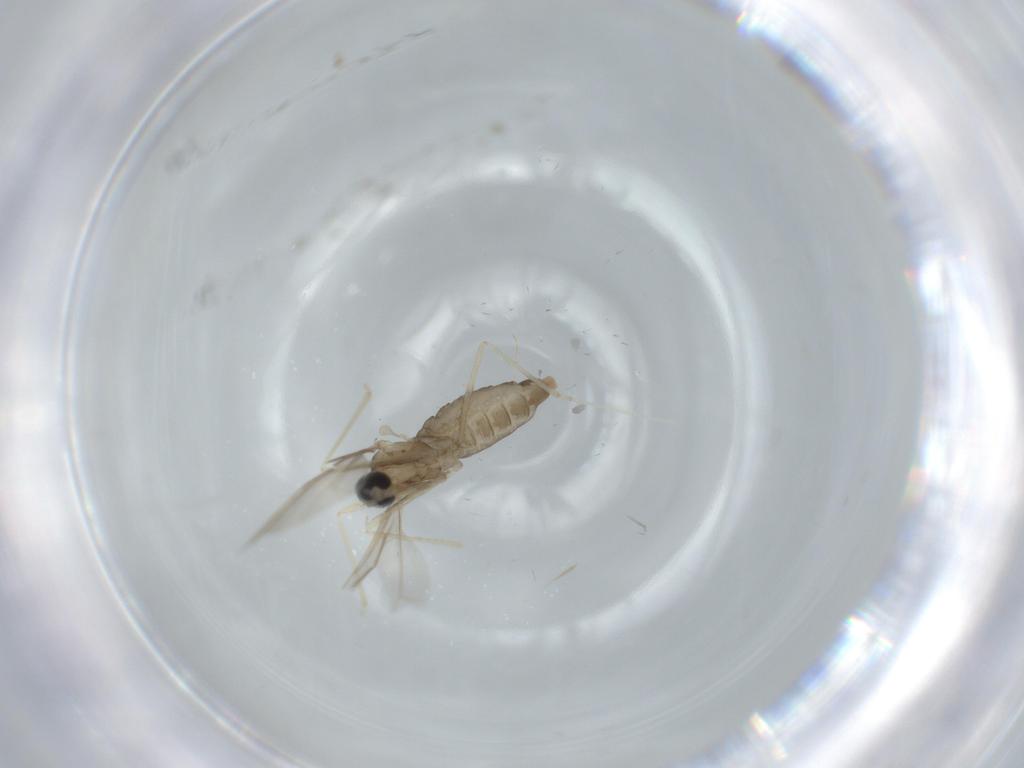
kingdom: Animalia
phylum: Arthropoda
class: Insecta
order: Diptera
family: Cecidomyiidae
